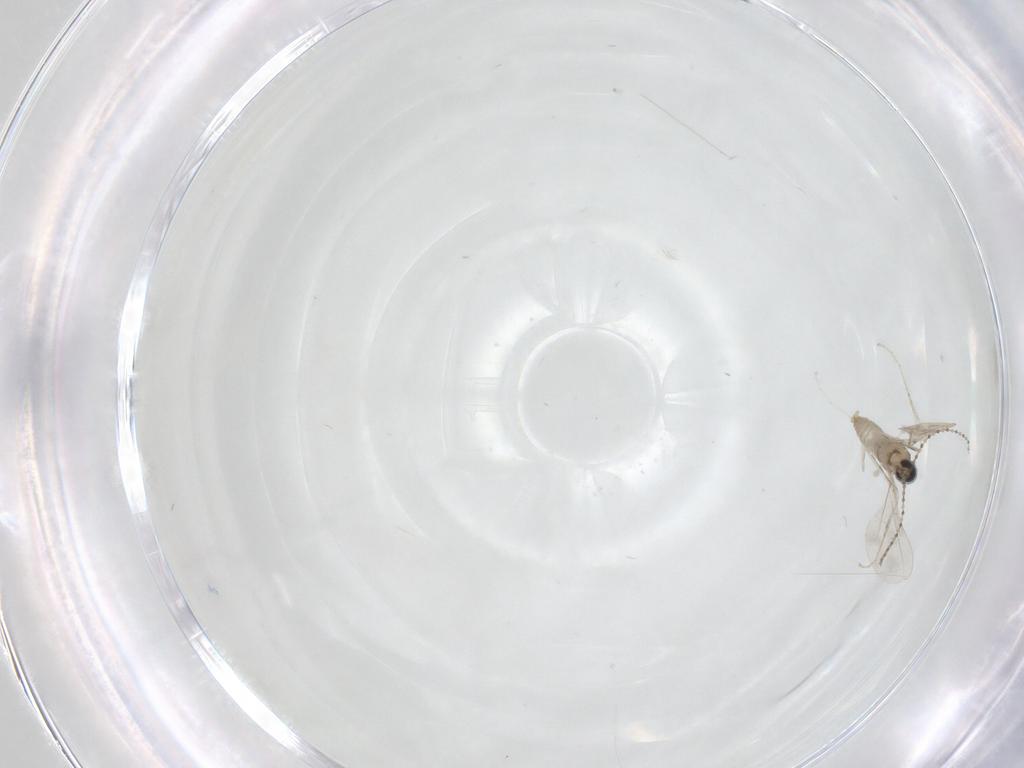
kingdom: Animalia
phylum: Arthropoda
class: Insecta
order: Diptera
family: Cecidomyiidae
